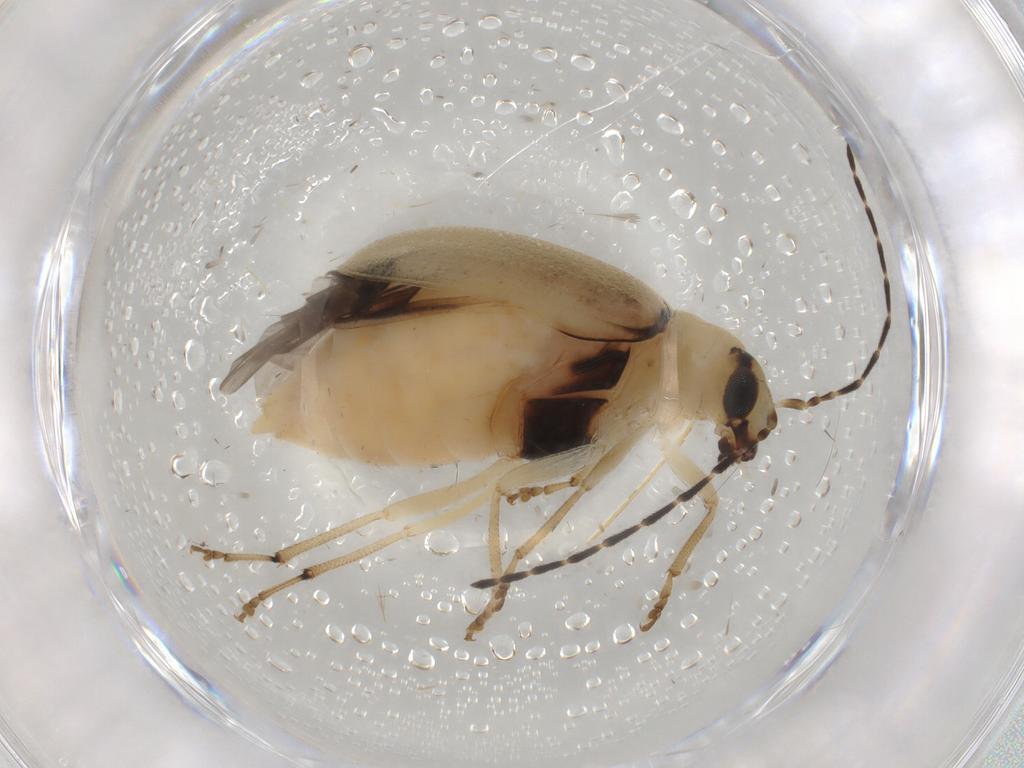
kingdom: Animalia
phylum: Arthropoda
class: Insecta
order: Coleoptera
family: Chrysomelidae
